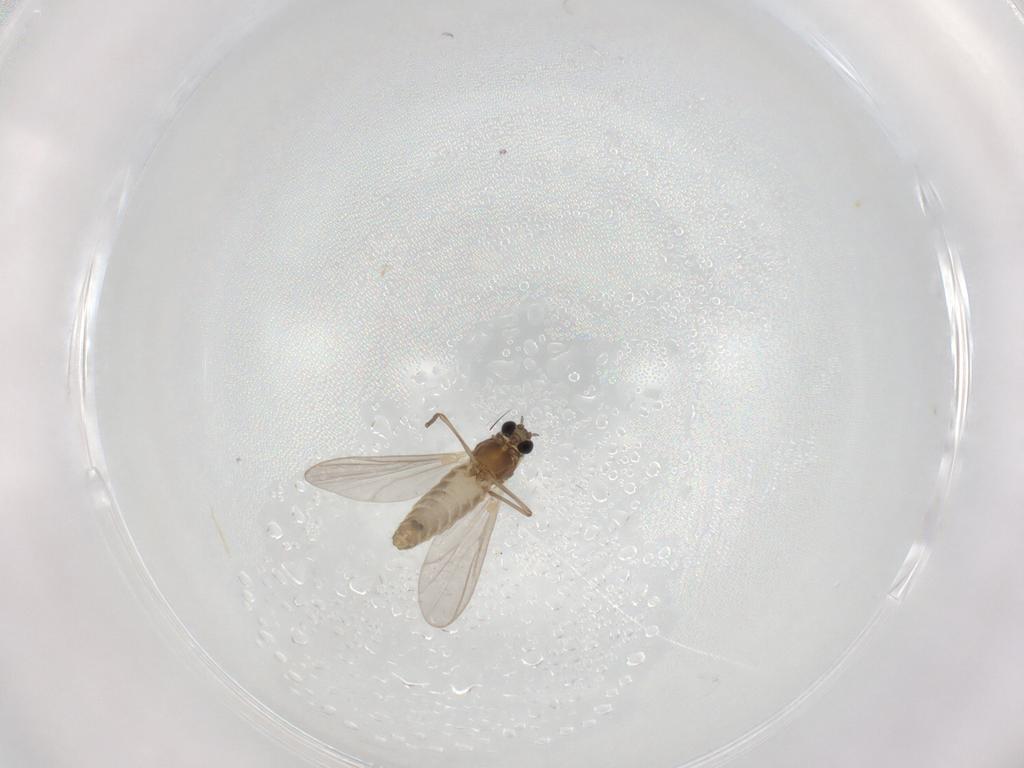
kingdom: Animalia
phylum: Arthropoda
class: Insecta
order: Diptera
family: Chironomidae
